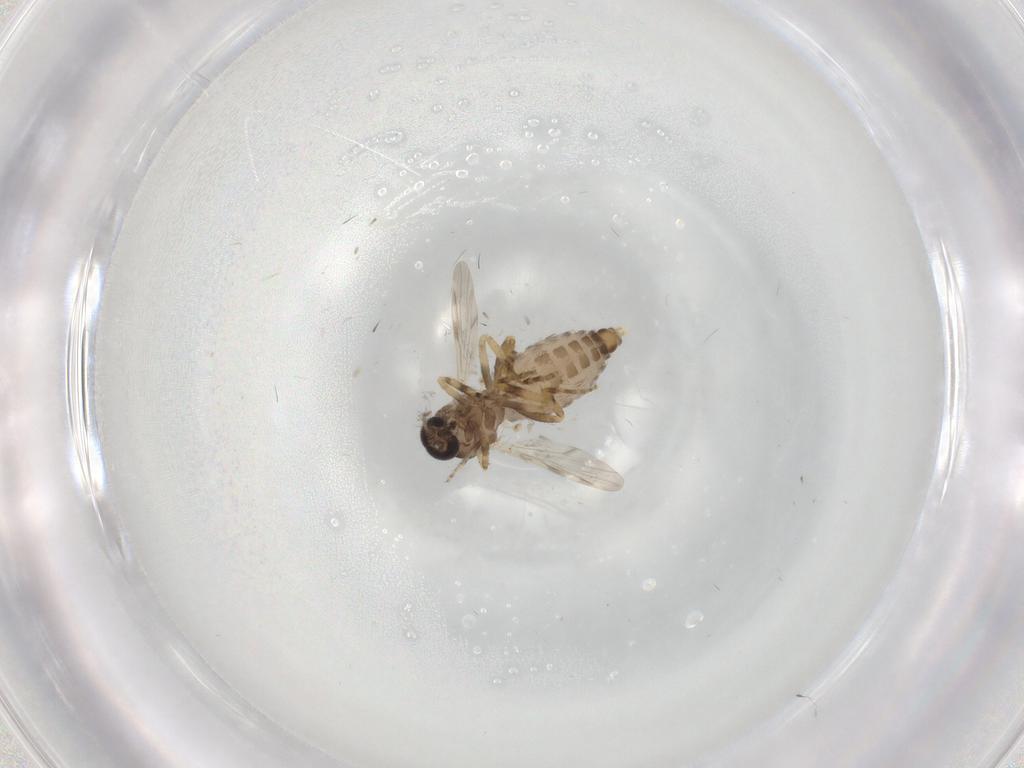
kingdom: Animalia
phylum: Arthropoda
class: Insecta
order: Diptera
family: Ceratopogonidae
